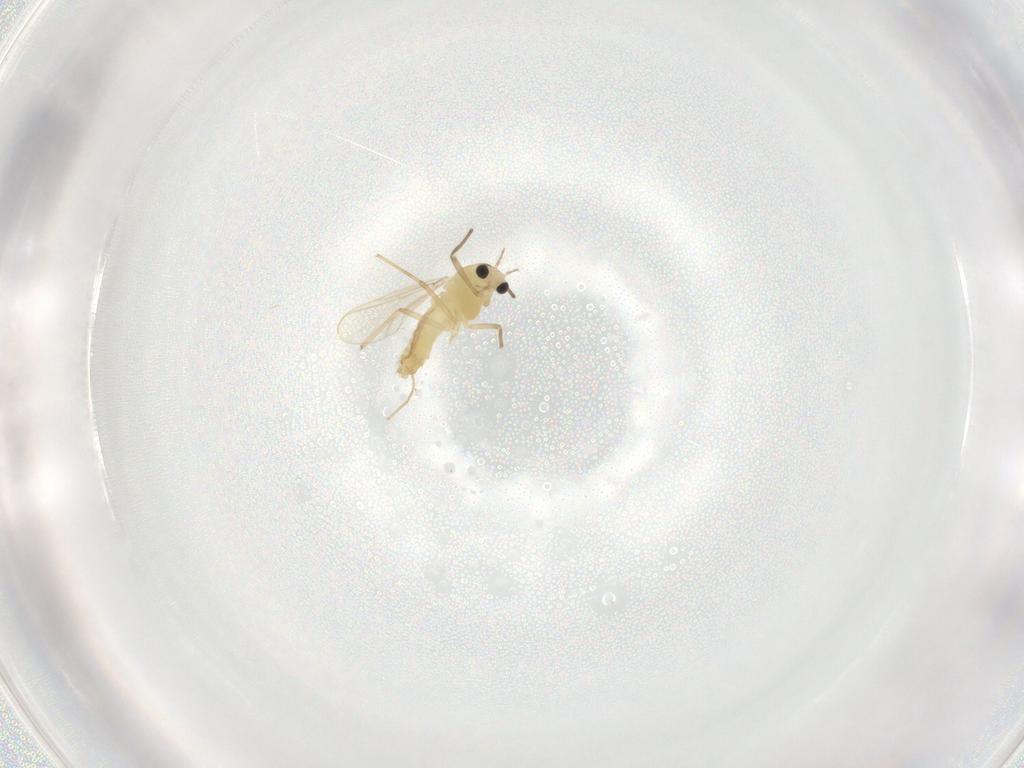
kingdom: Animalia
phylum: Arthropoda
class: Insecta
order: Diptera
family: Chironomidae
